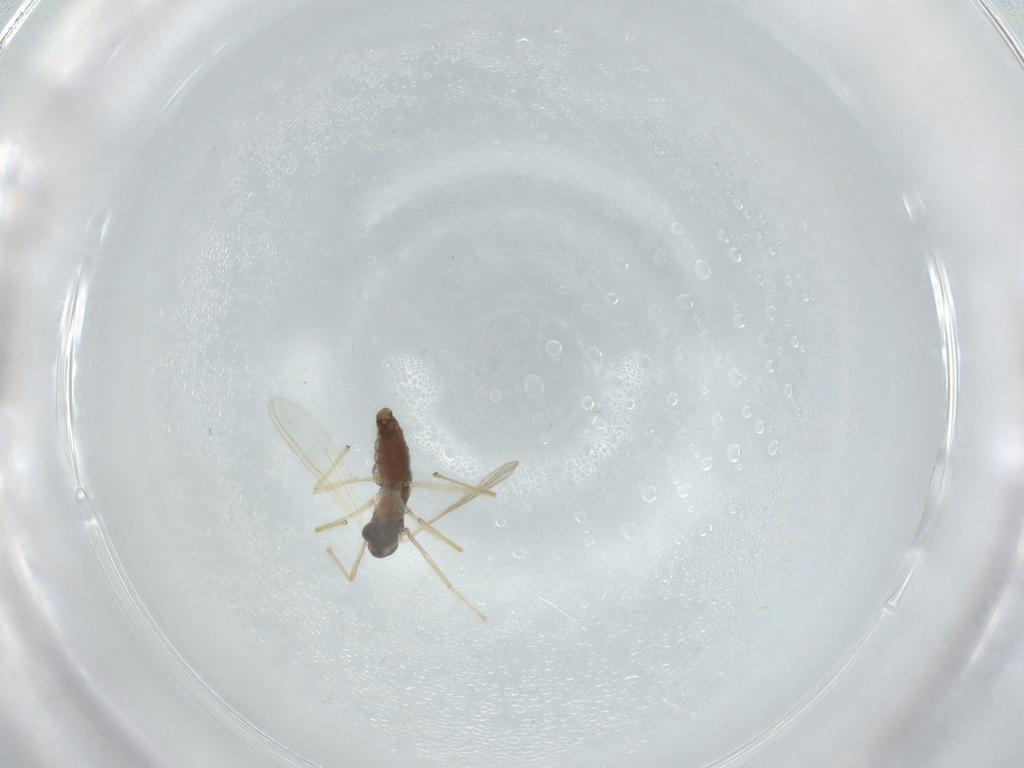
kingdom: Animalia
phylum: Arthropoda
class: Insecta
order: Diptera
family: Chironomidae
